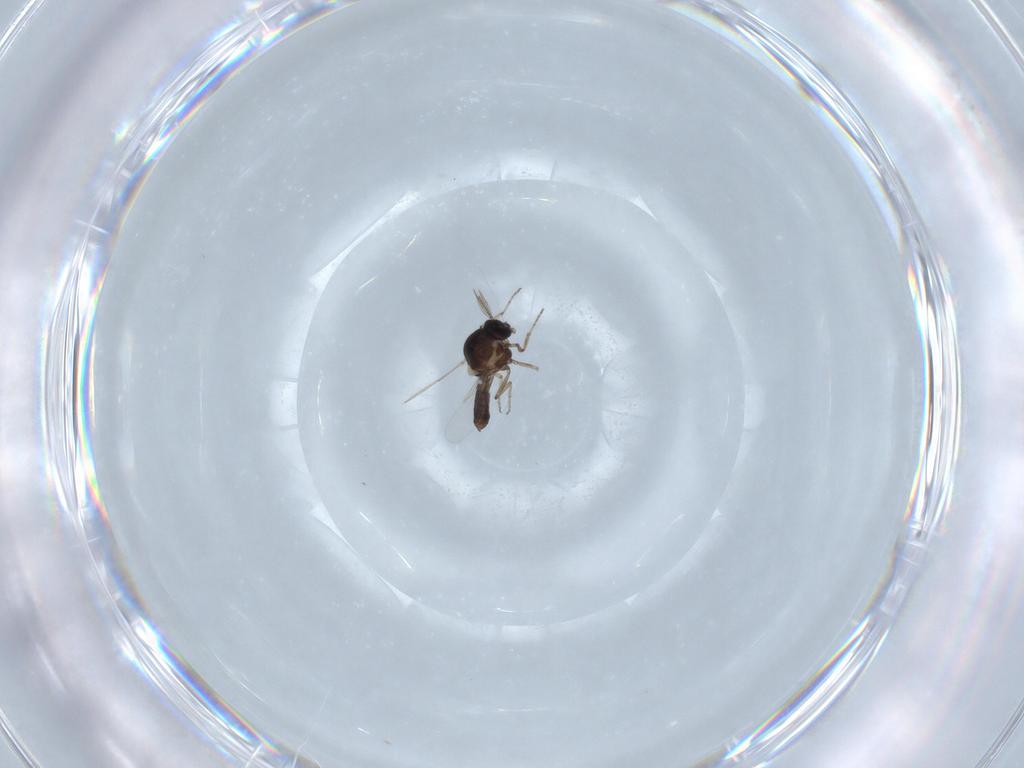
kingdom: Animalia
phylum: Arthropoda
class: Insecta
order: Diptera
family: Ceratopogonidae
